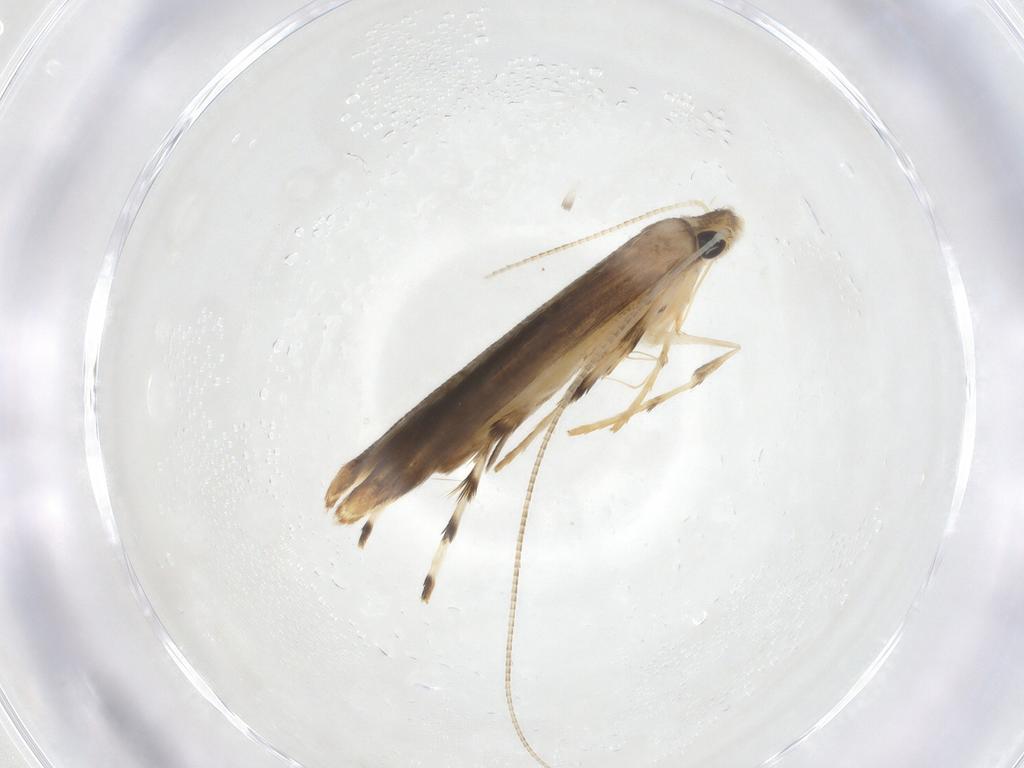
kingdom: Animalia
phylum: Arthropoda
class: Insecta
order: Lepidoptera
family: Gracillariidae
